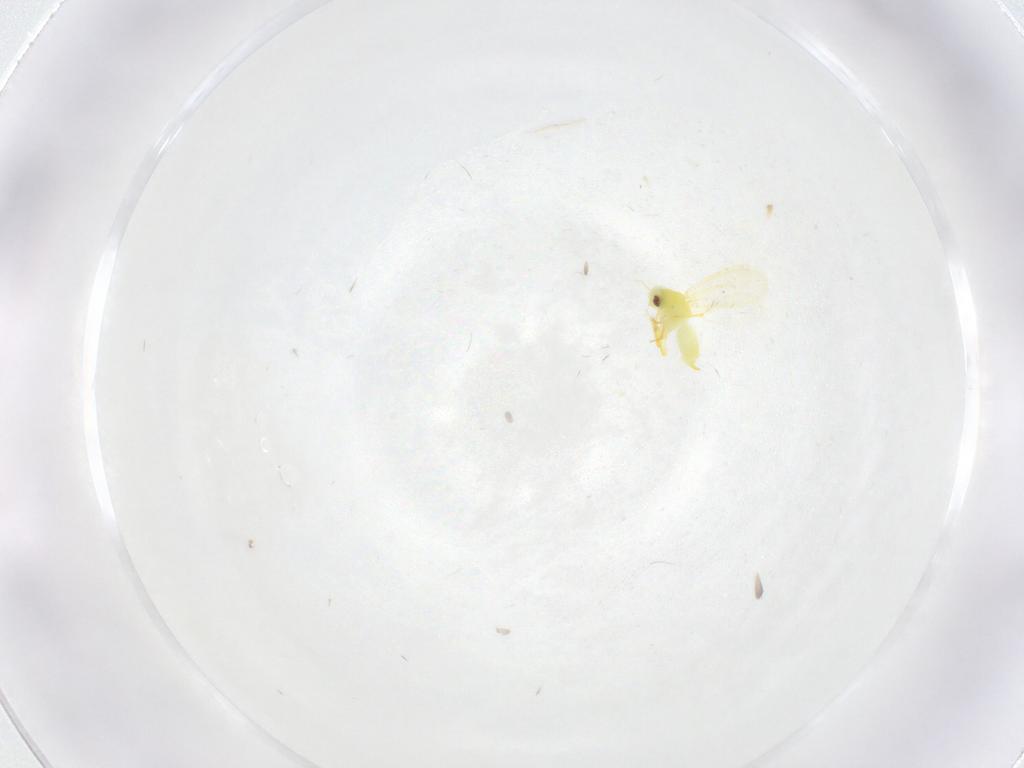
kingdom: Animalia
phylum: Arthropoda
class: Insecta
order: Hemiptera
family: Aleyrodidae
